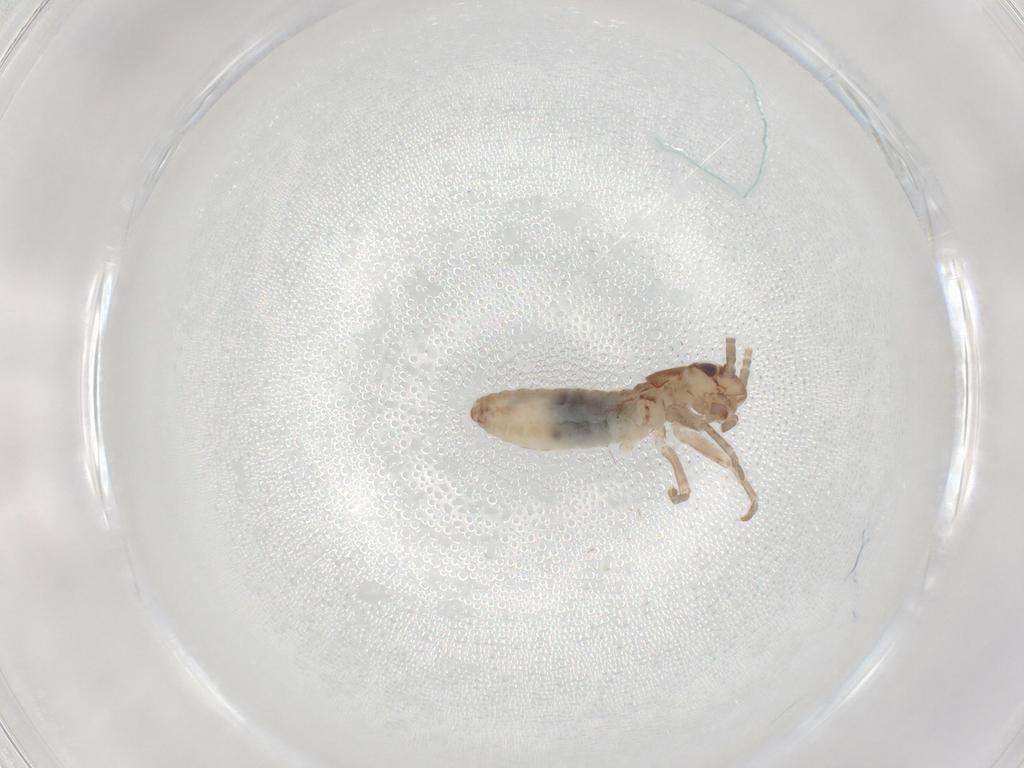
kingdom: Animalia
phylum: Arthropoda
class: Insecta
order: Orthoptera
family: Mogoplistidae
